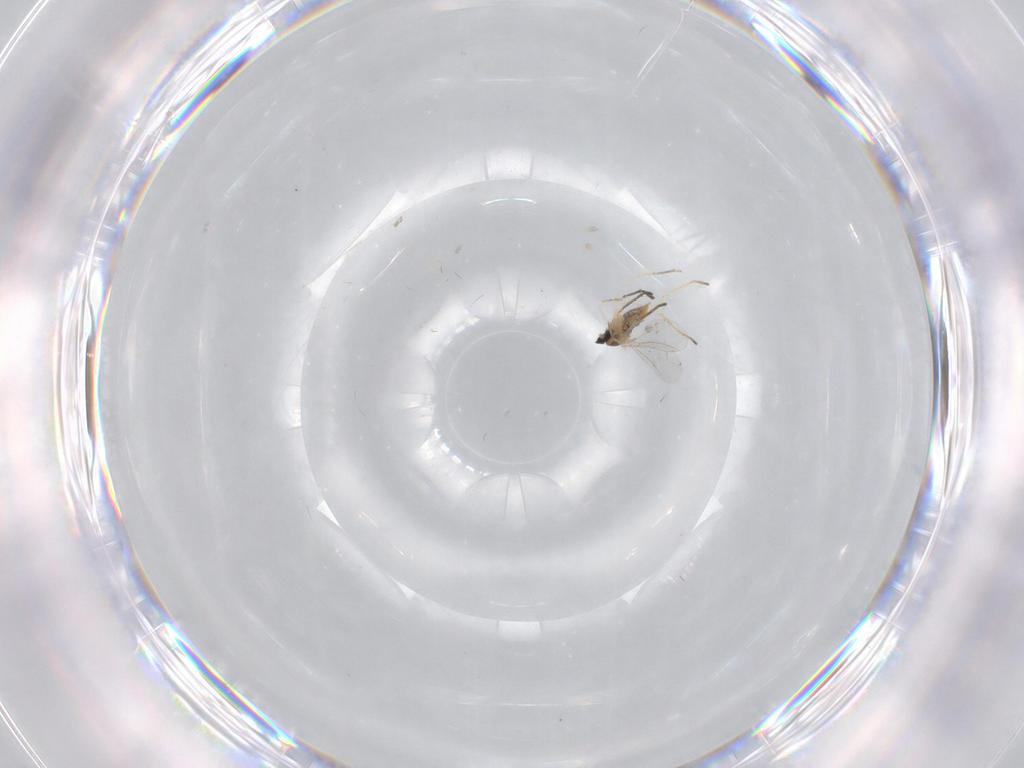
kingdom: Animalia
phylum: Arthropoda
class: Insecta
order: Diptera
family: Cecidomyiidae
